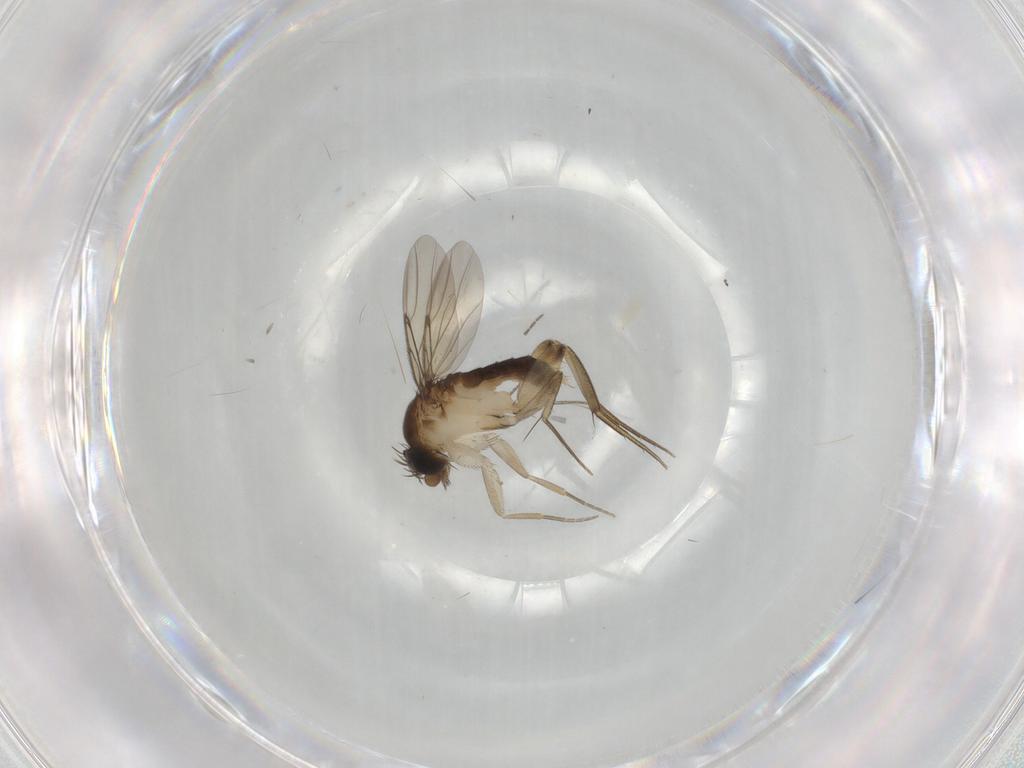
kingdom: Animalia
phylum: Arthropoda
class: Insecta
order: Diptera
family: Phoridae
